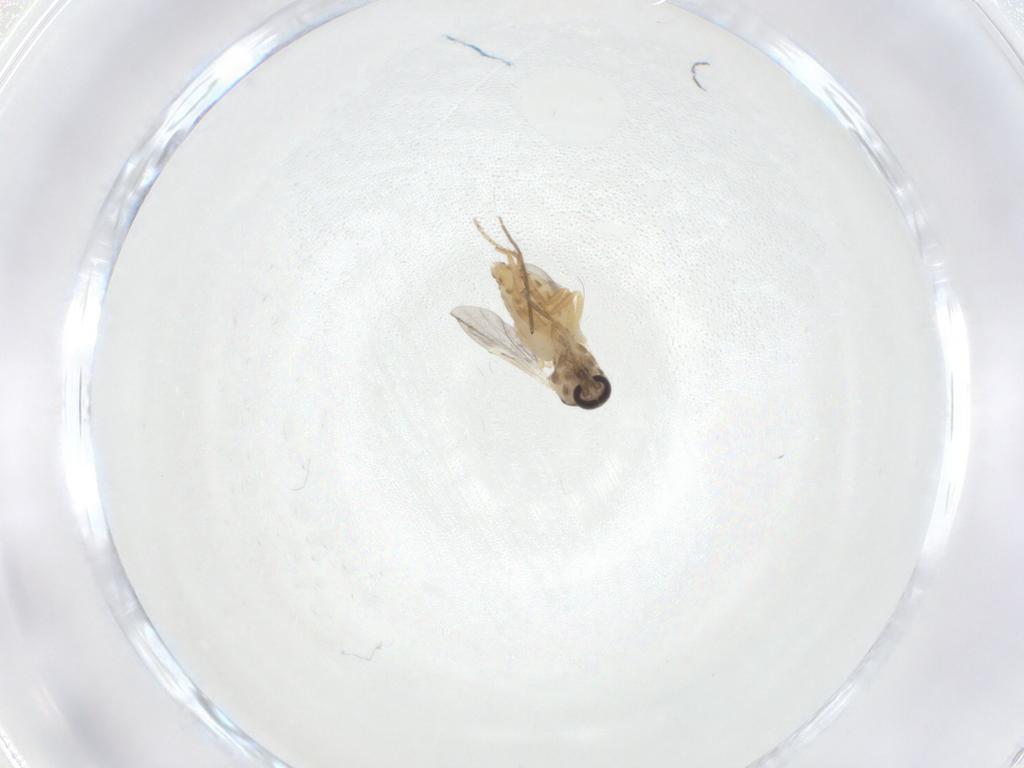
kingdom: Animalia
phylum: Arthropoda
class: Insecta
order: Diptera
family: Ceratopogonidae
